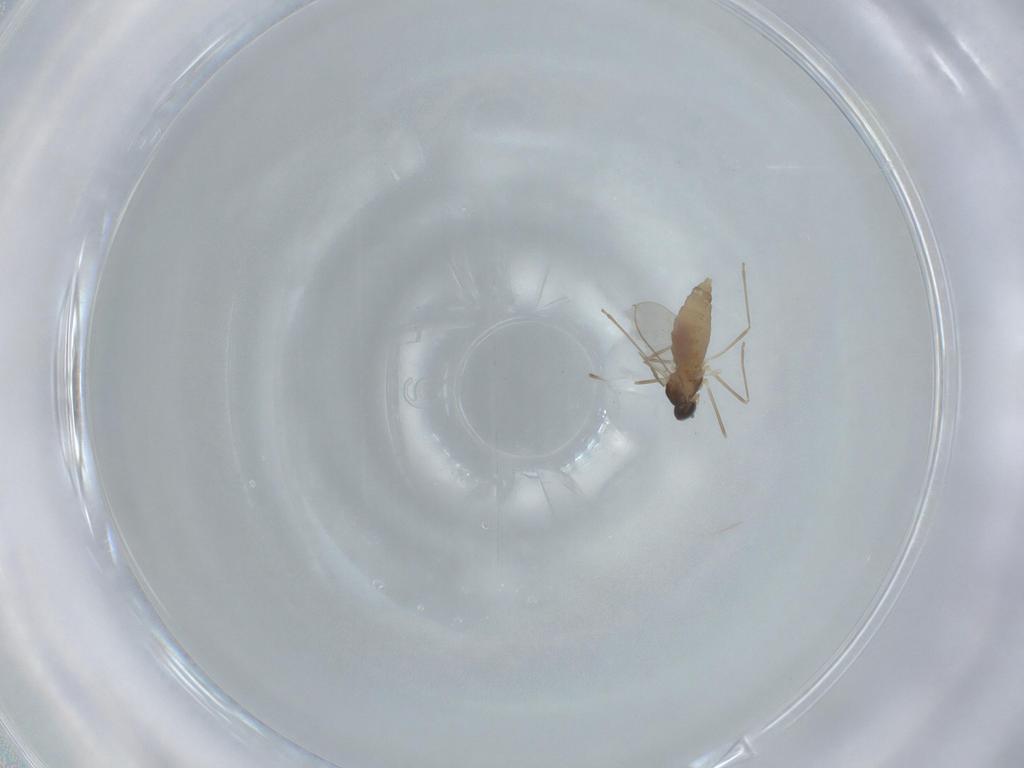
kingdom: Animalia
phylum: Arthropoda
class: Insecta
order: Diptera
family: Cecidomyiidae
